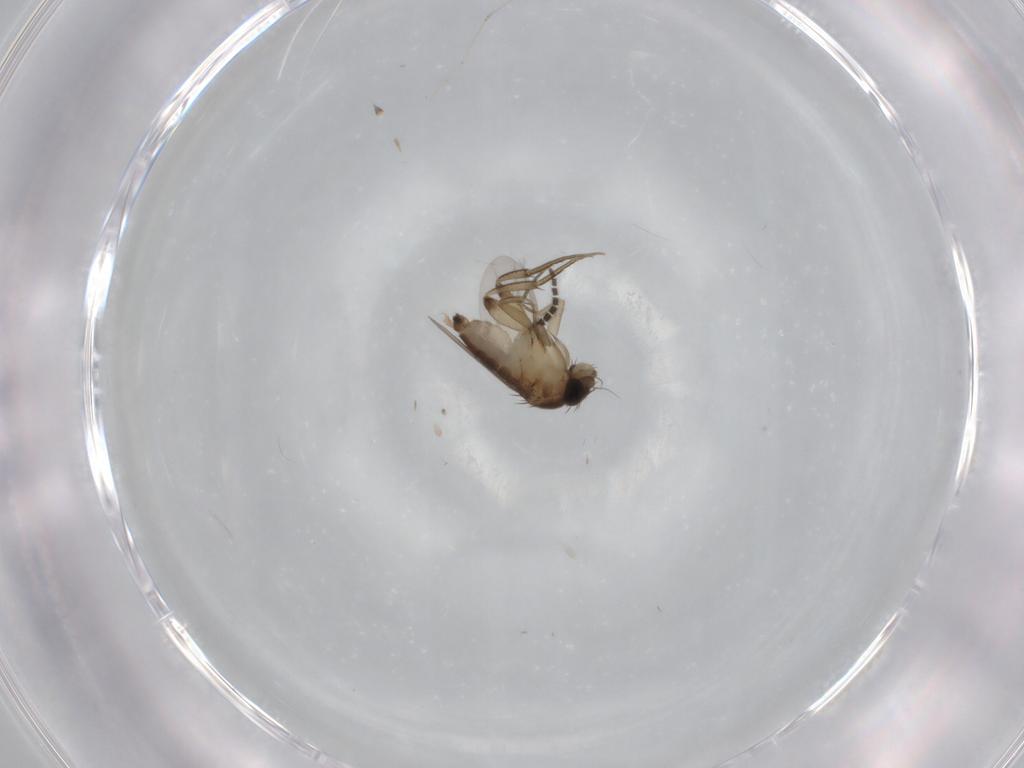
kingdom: Animalia
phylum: Arthropoda
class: Insecta
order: Diptera
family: Phoridae
